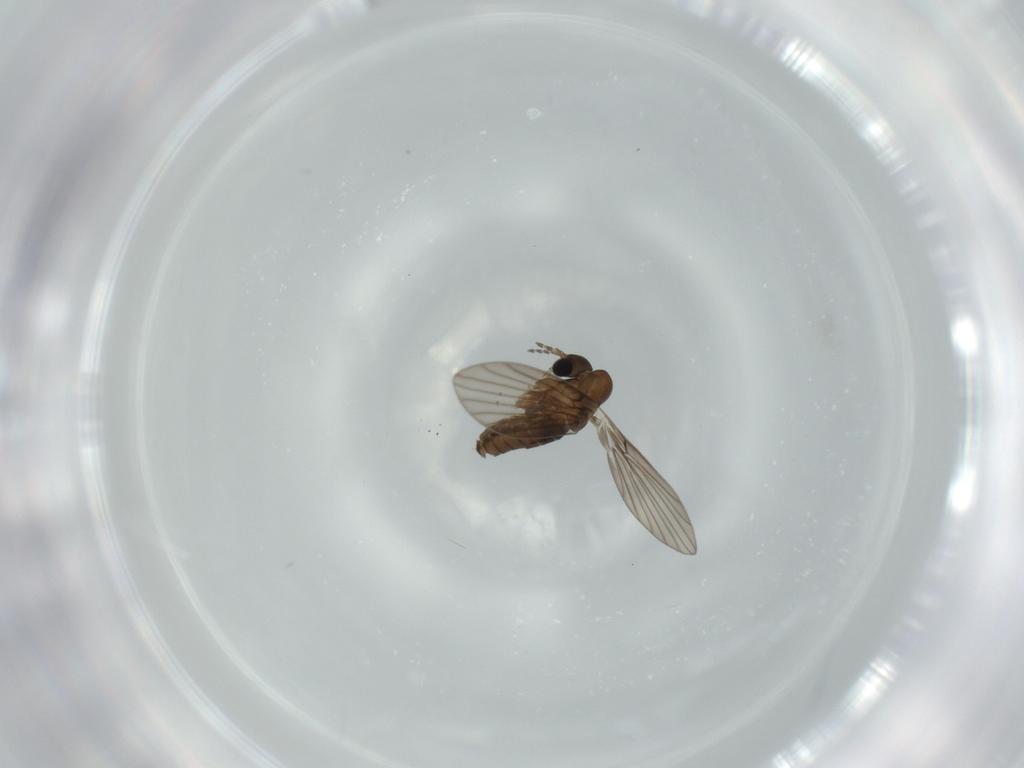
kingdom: Animalia
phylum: Arthropoda
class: Insecta
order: Diptera
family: Psychodidae
